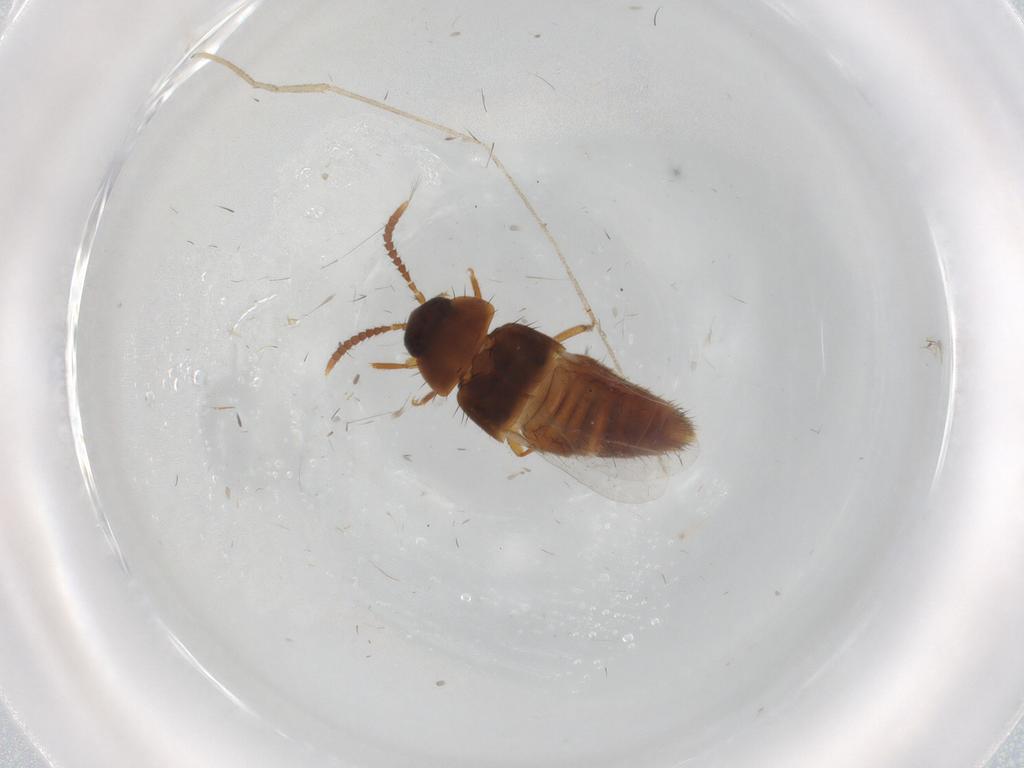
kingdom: Animalia
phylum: Arthropoda
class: Insecta
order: Coleoptera
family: Staphylinidae
